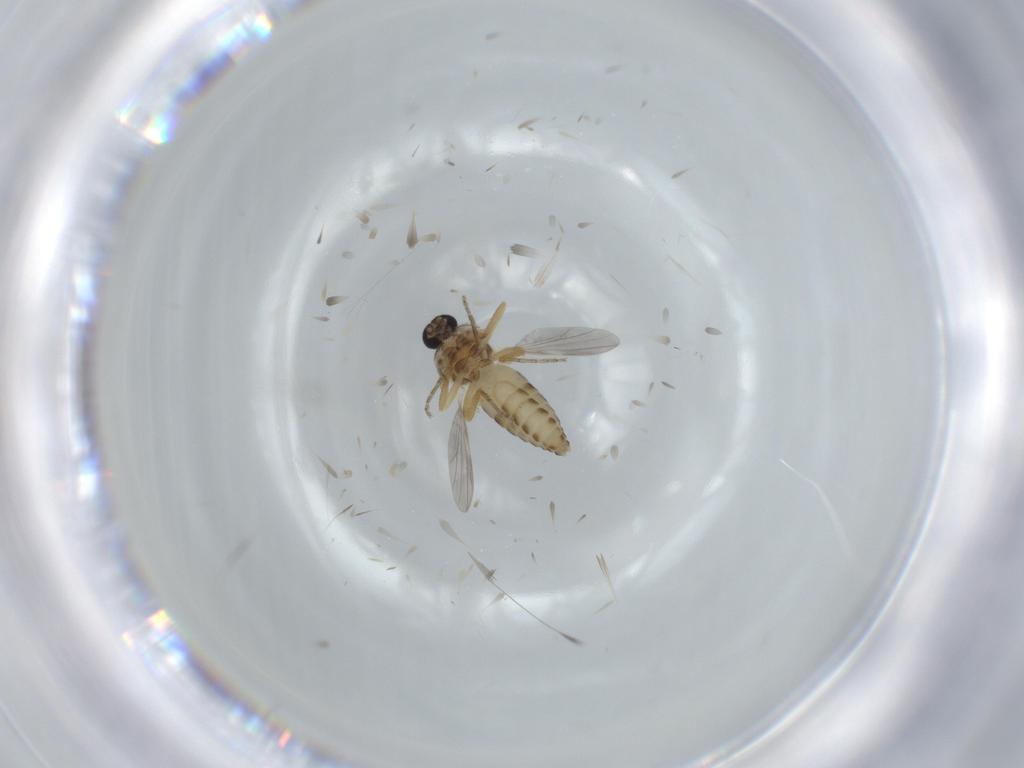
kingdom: Animalia
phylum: Arthropoda
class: Insecta
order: Diptera
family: Ceratopogonidae
